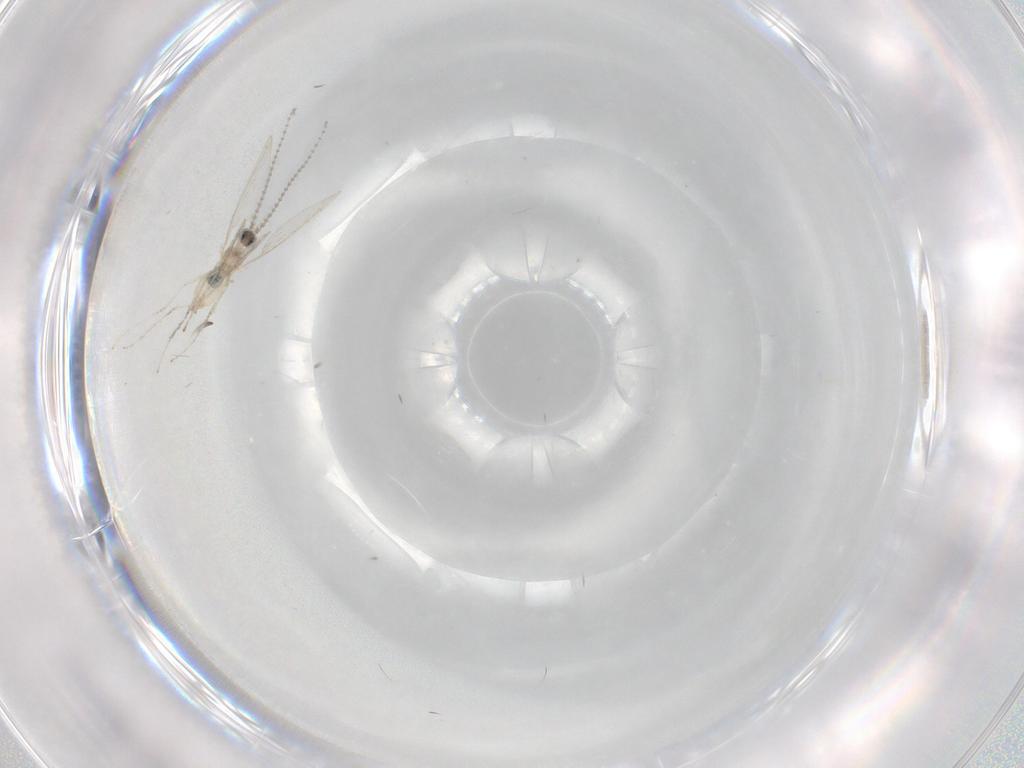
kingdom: Animalia
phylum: Arthropoda
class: Insecta
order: Diptera
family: Cecidomyiidae
